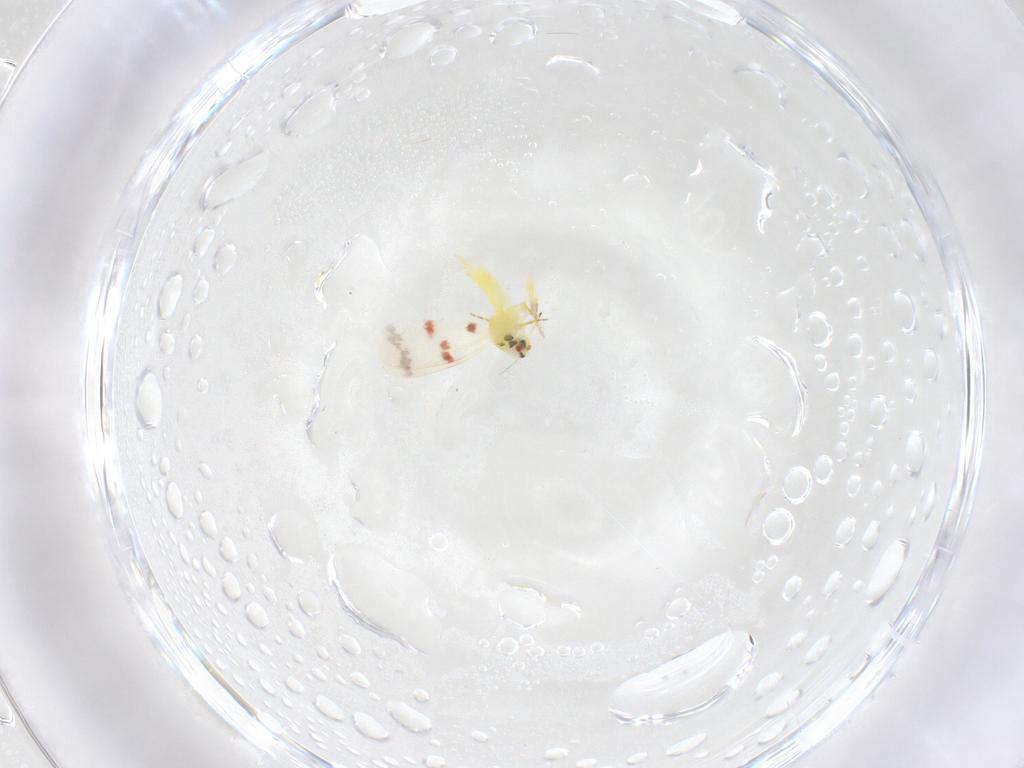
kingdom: Animalia
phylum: Arthropoda
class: Insecta
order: Hemiptera
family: Aleyrodidae
